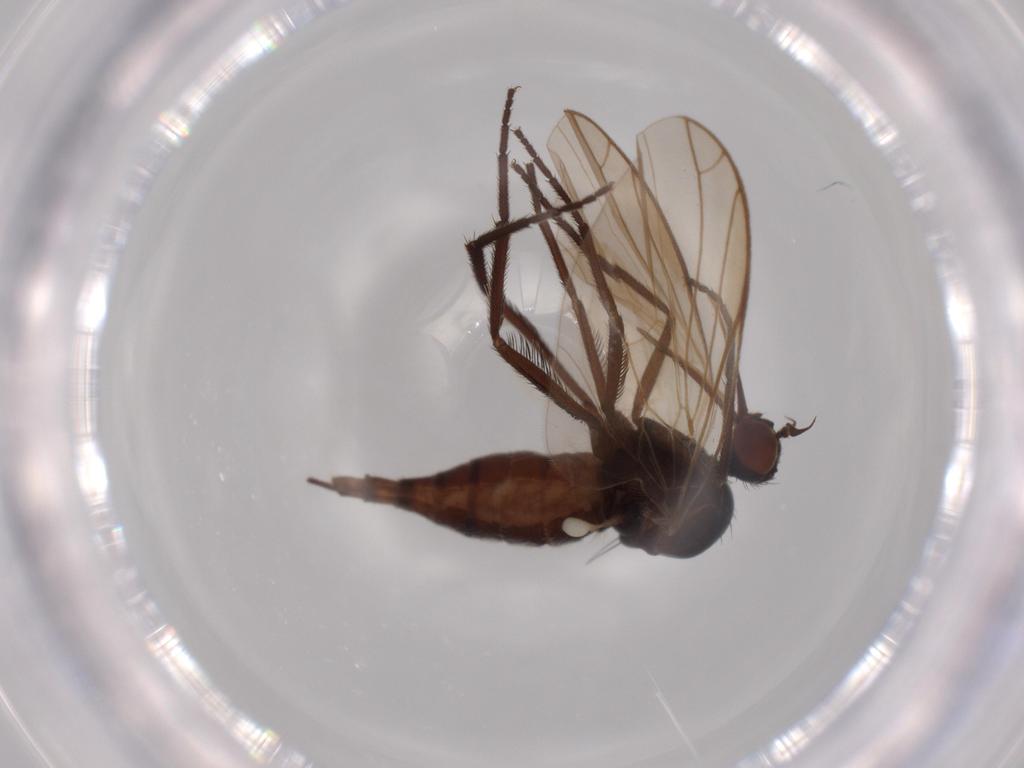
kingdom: Animalia
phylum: Arthropoda
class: Insecta
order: Diptera
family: Empididae
